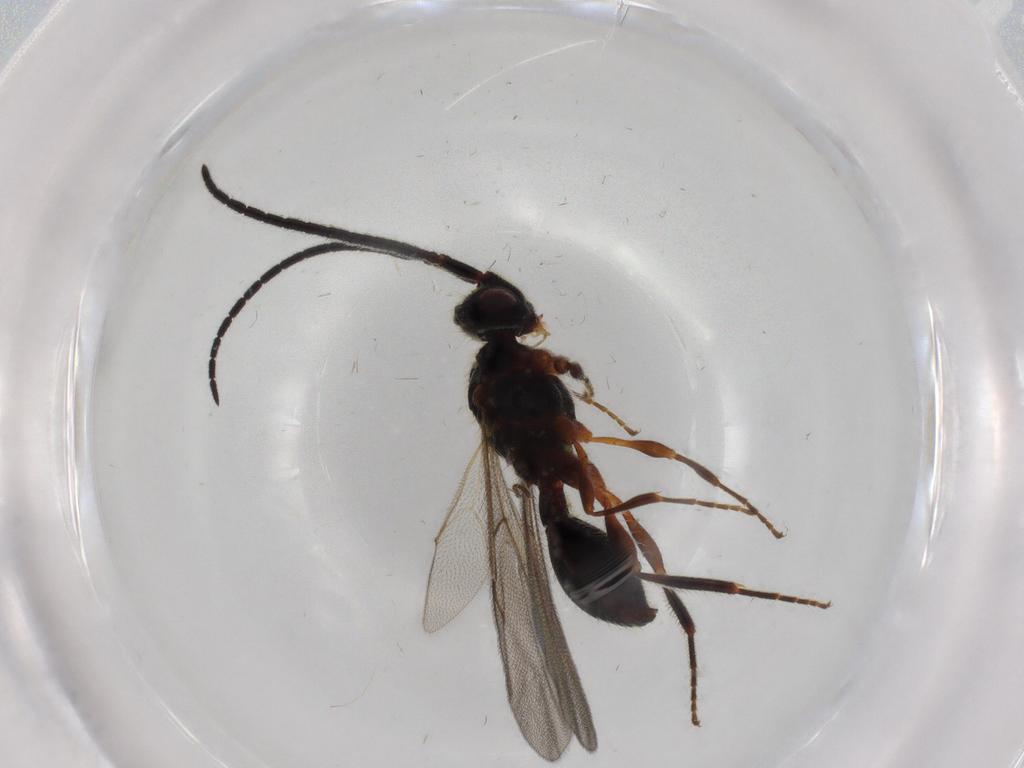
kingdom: Animalia
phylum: Arthropoda
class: Insecta
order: Hymenoptera
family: Diapriidae
